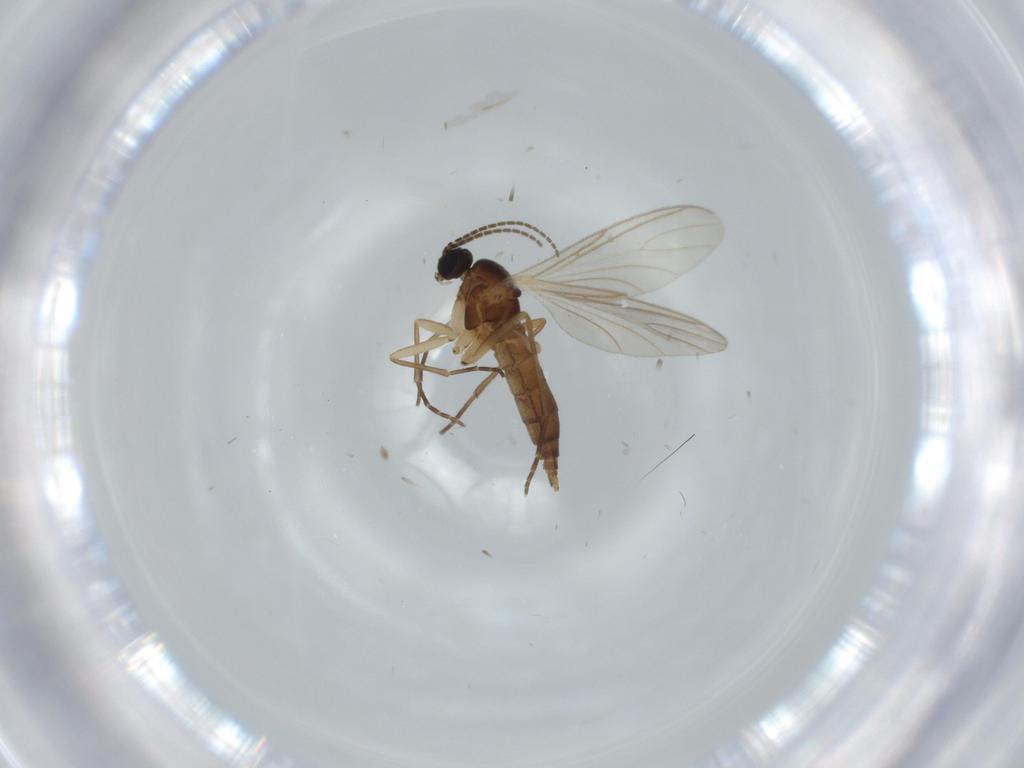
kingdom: Animalia
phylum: Arthropoda
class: Insecta
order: Diptera
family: Sciaridae
